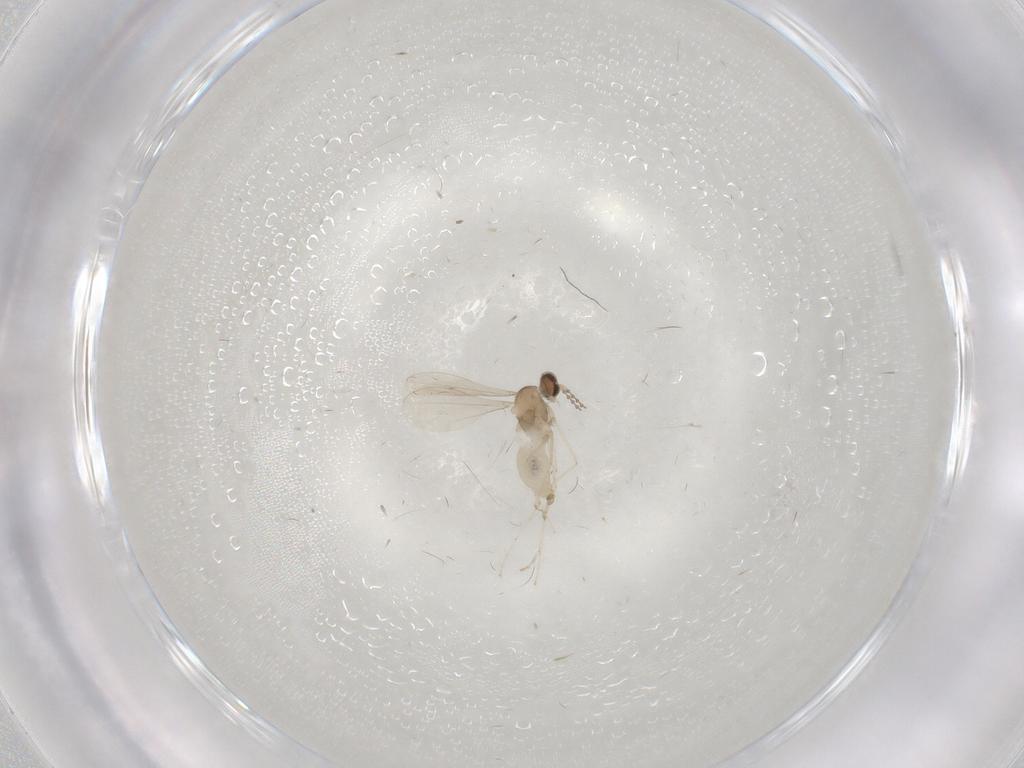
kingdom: Animalia
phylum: Arthropoda
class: Insecta
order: Diptera
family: Cecidomyiidae
